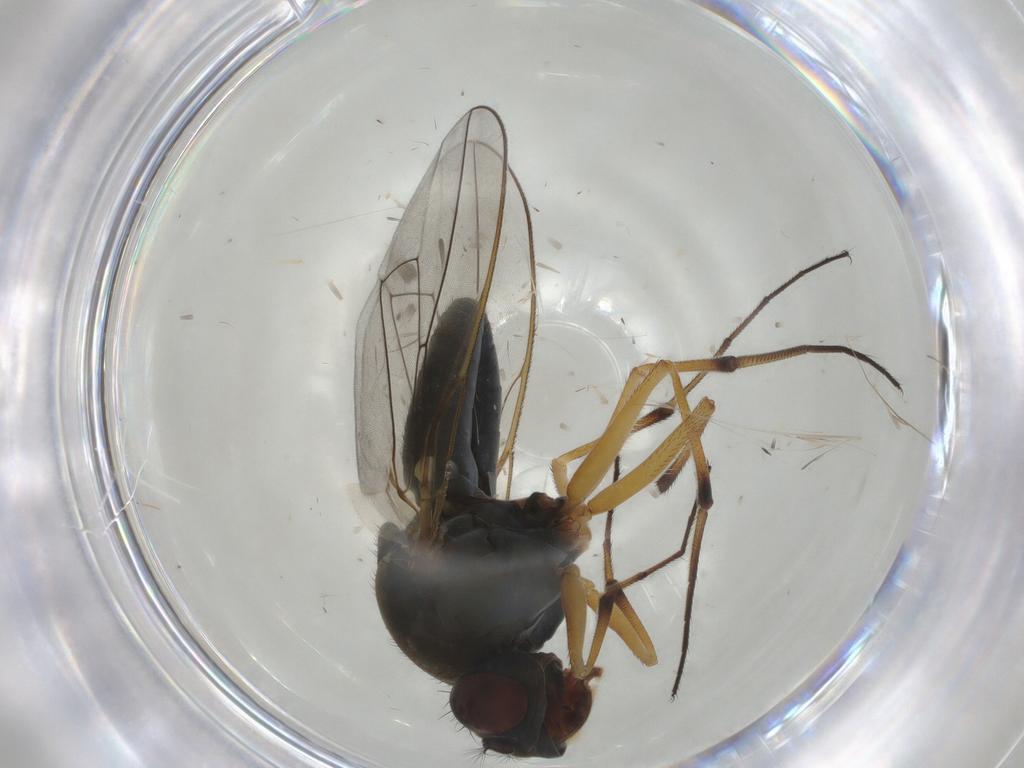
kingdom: Animalia
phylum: Arthropoda
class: Insecta
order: Diptera
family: Ephydridae
